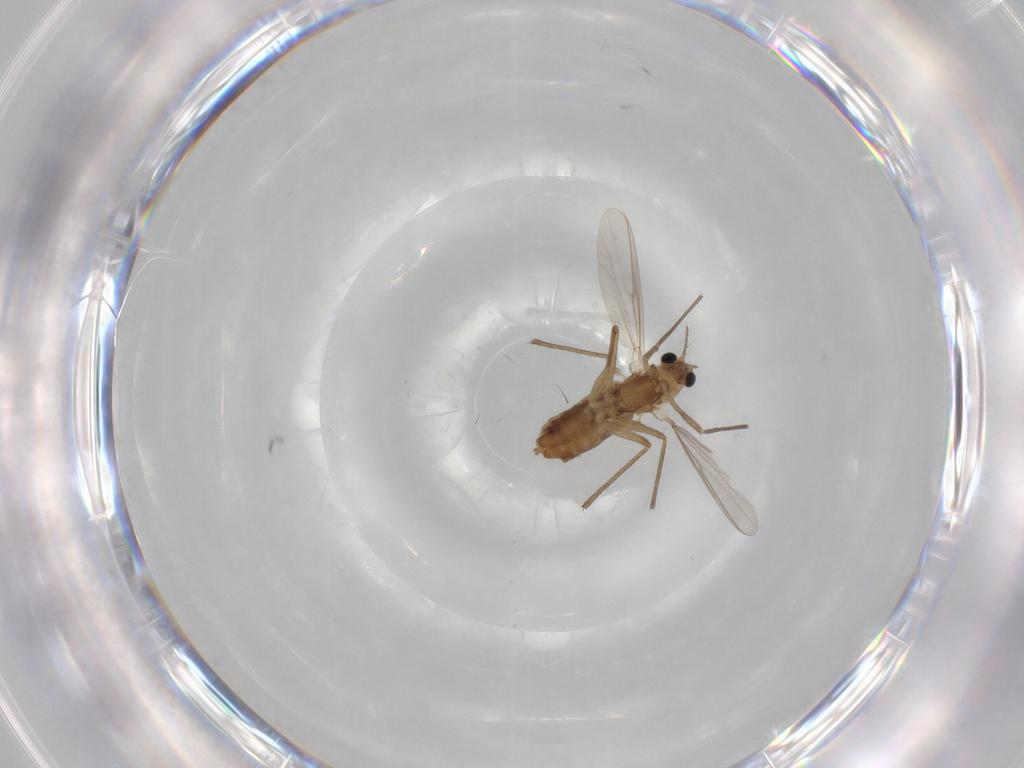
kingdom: Animalia
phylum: Arthropoda
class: Insecta
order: Diptera
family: Chironomidae
